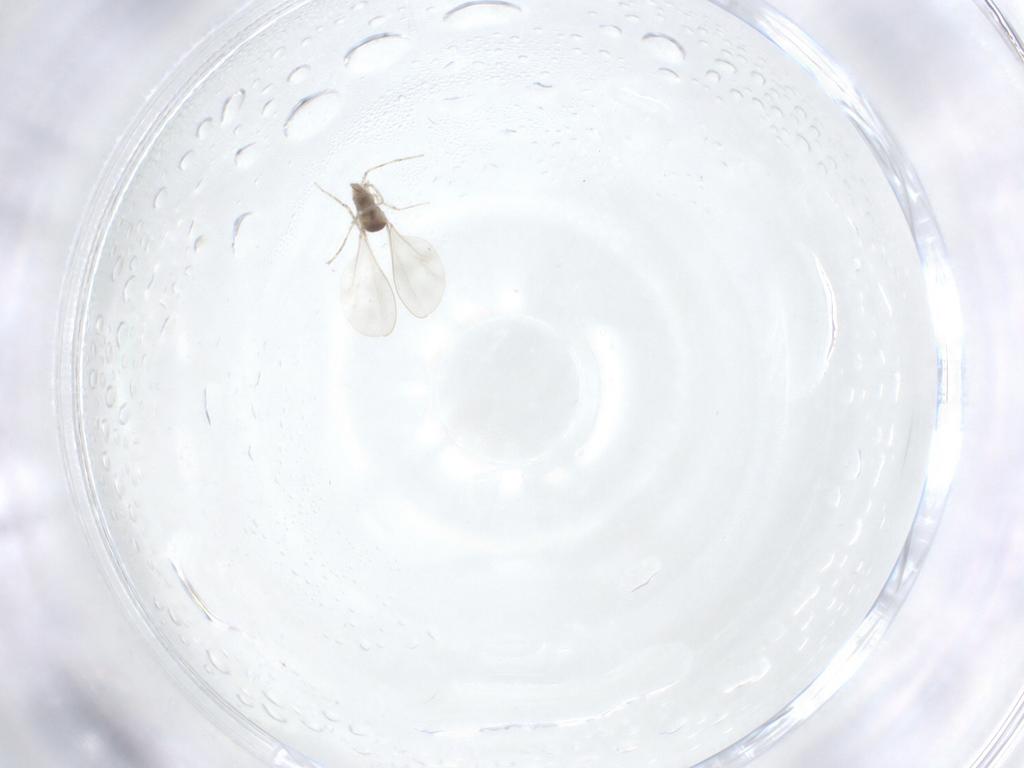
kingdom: Animalia
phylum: Arthropoda
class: Insecta
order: Diptera
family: Cecidomyiidae
